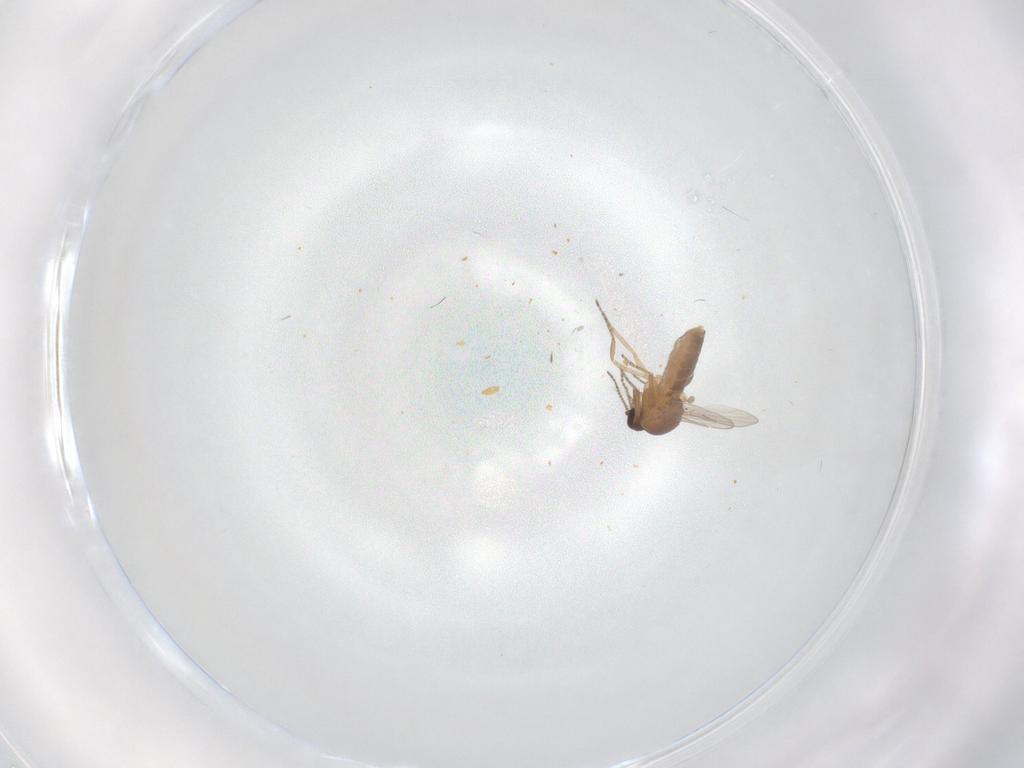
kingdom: Animalia
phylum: Arthropoda
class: Insecta
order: Diptera
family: Ceratopogonidae
